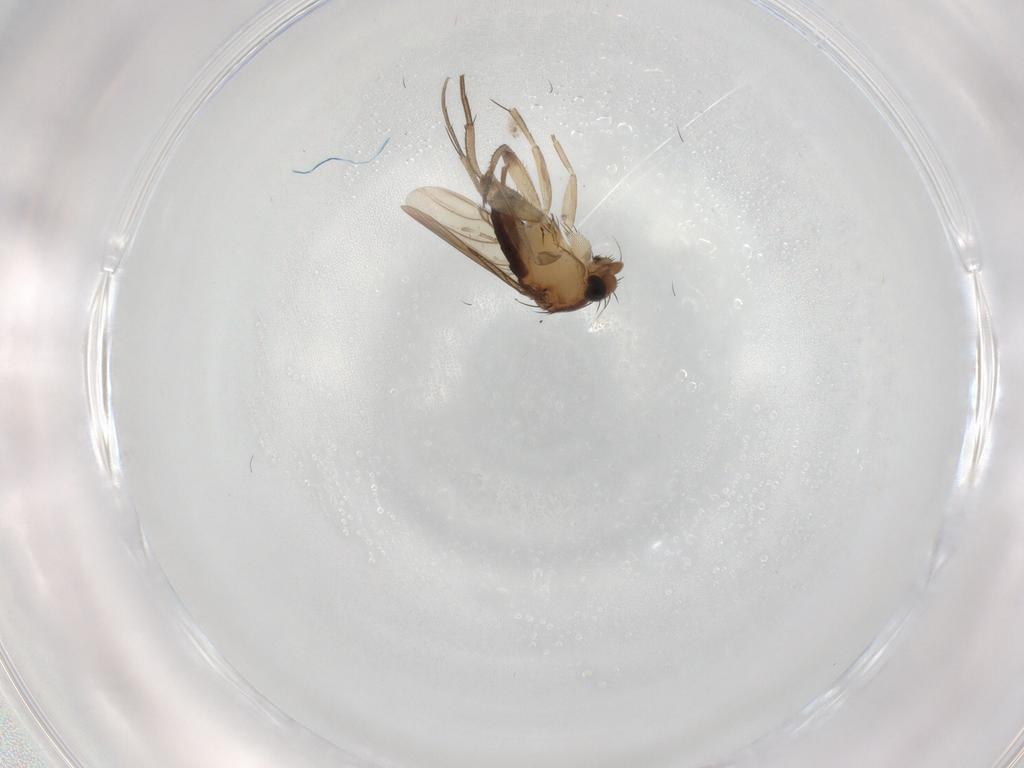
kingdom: Animalia
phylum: Arthropoda
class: Insecta
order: Diptera
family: Phoridae
